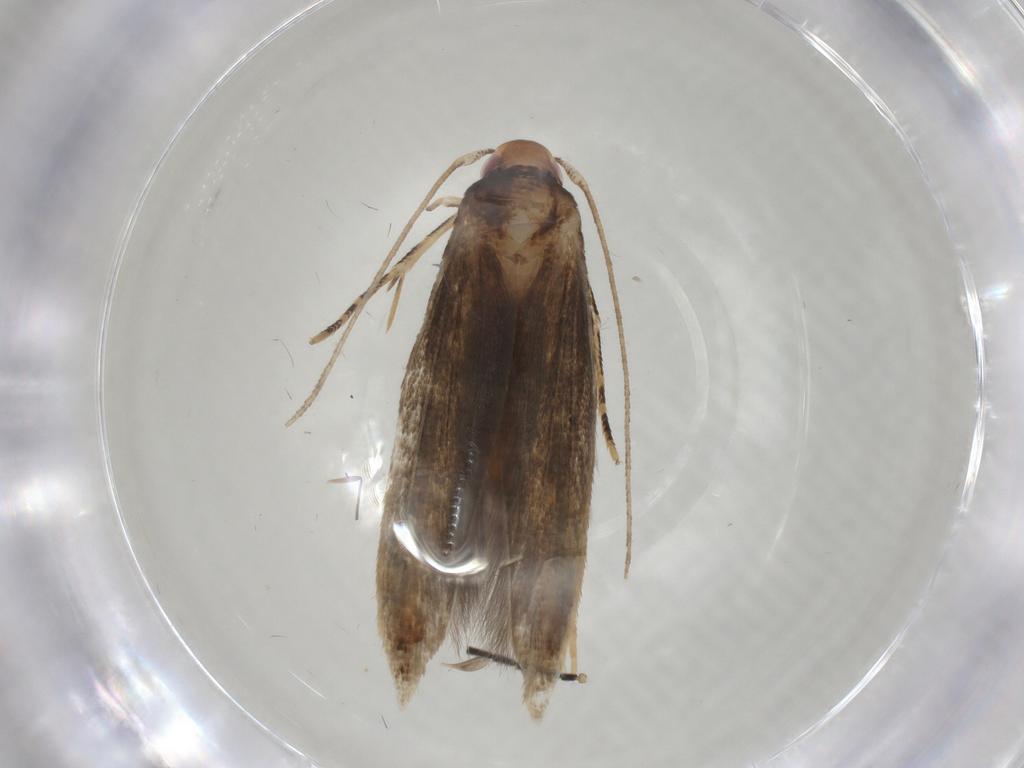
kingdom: Animalia
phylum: Arthropoda
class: Insecta
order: Lepidoptera
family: Momphidae
